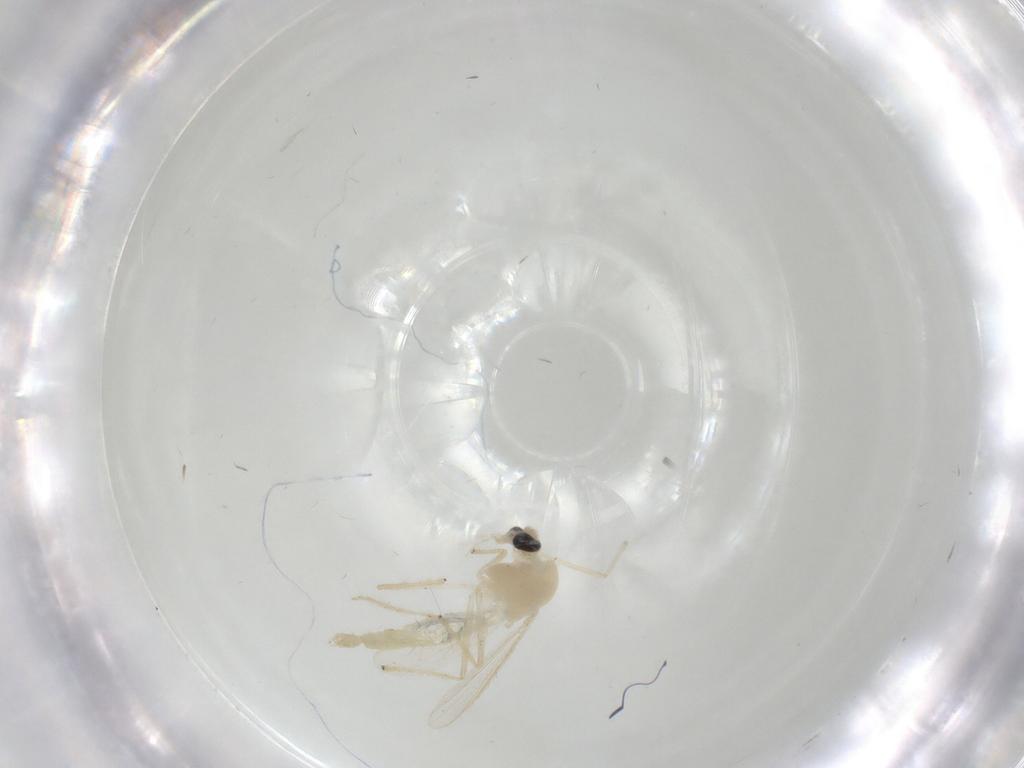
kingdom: Animalia
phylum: Arthropoda
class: Insecta
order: Diptera
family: Chironomidae
